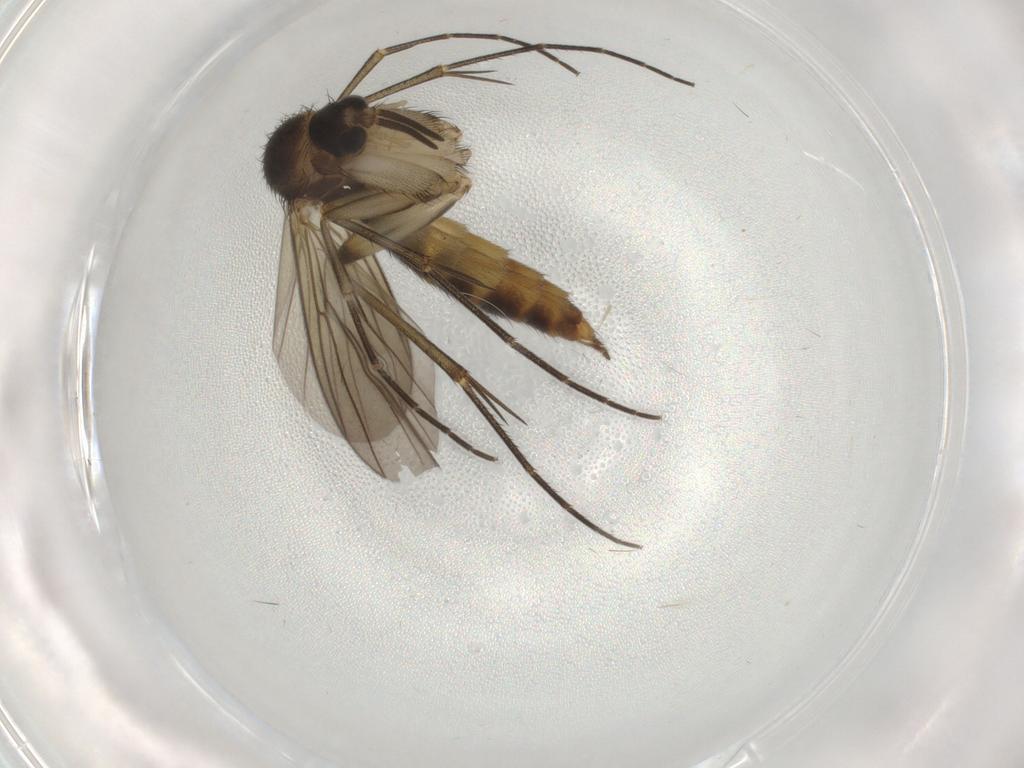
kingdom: Animalia
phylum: Arthropoda
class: Insecta
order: Diptera
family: Mycetophilidae
